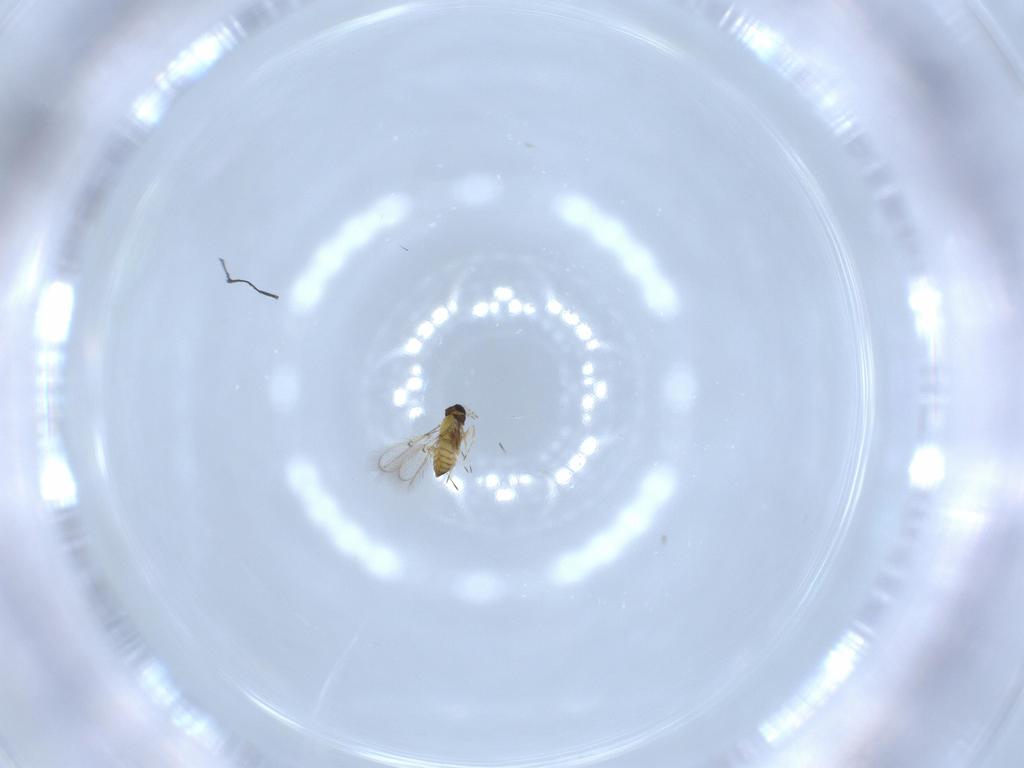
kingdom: Animalia
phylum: Arthropoda
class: Insecta
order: Hymenoptera
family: Trichogrammatidae
